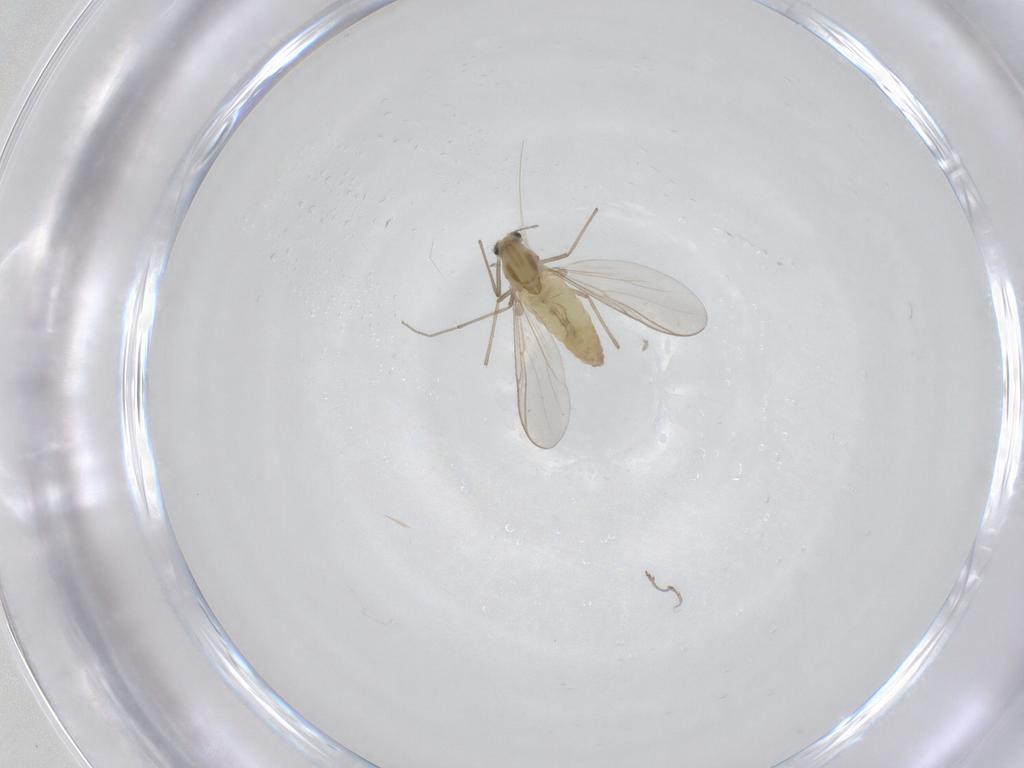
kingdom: Animalia
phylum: Arthropoda
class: Insecta
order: Diptera
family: Chironomidae
